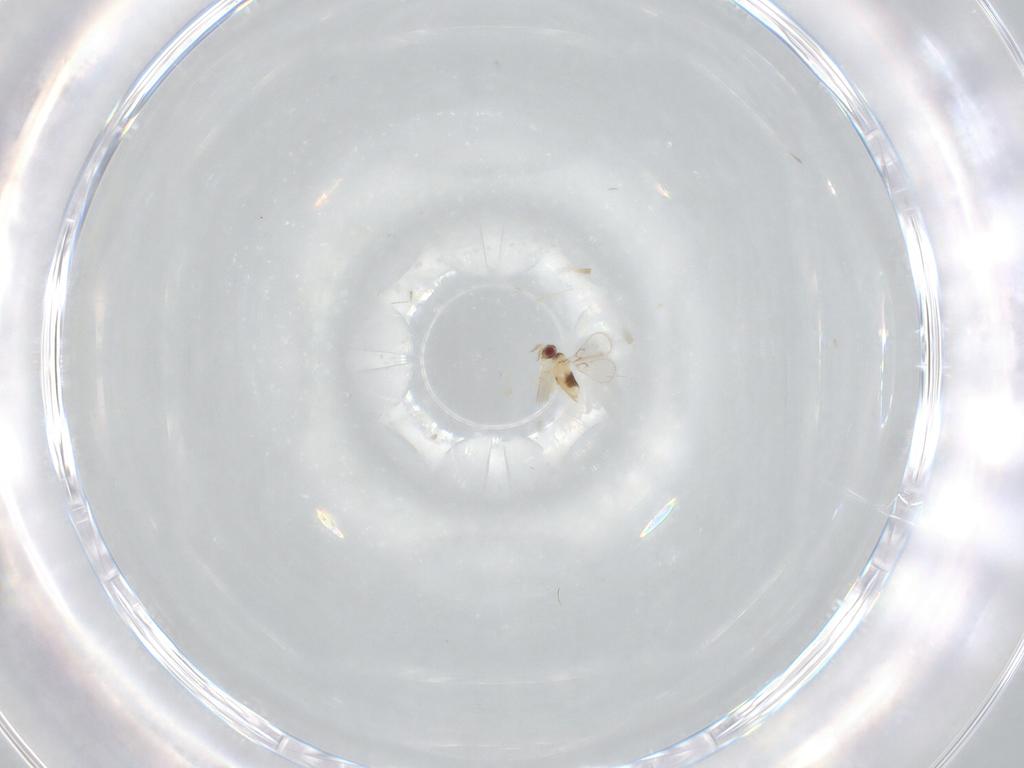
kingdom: Animalia
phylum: Arthropoda
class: Insecta
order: Hymenoptera
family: Trichogrammatidae
